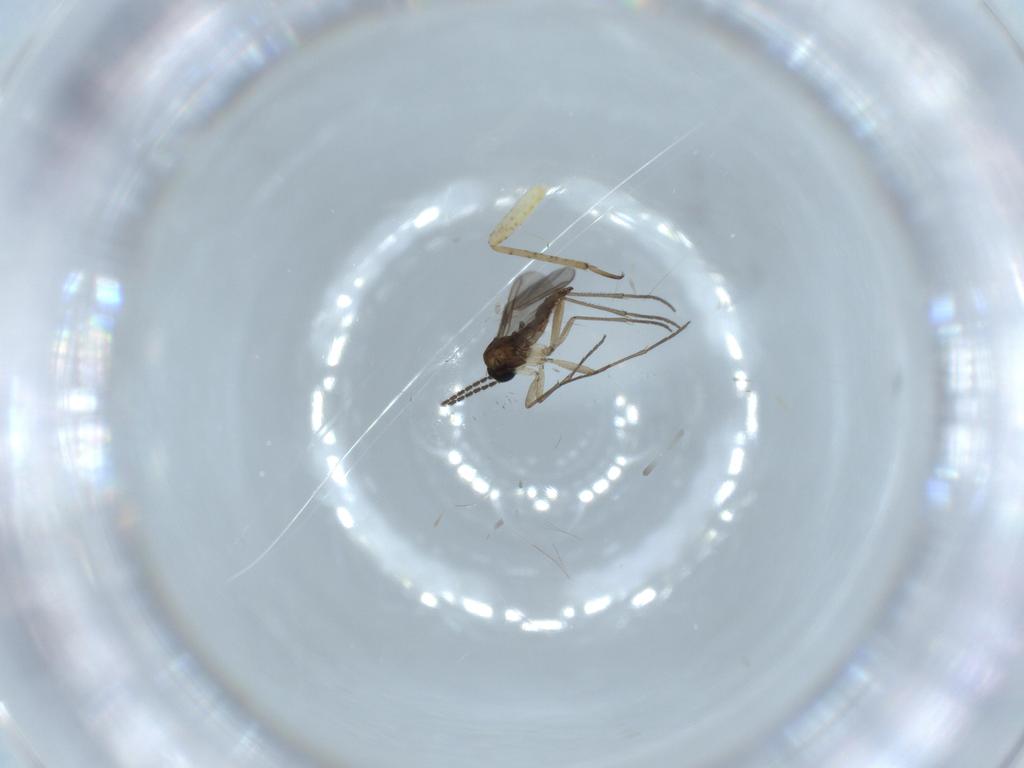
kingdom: Animalia
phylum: Arthropoda
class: Insecta
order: Diptera
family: Sciaridae
